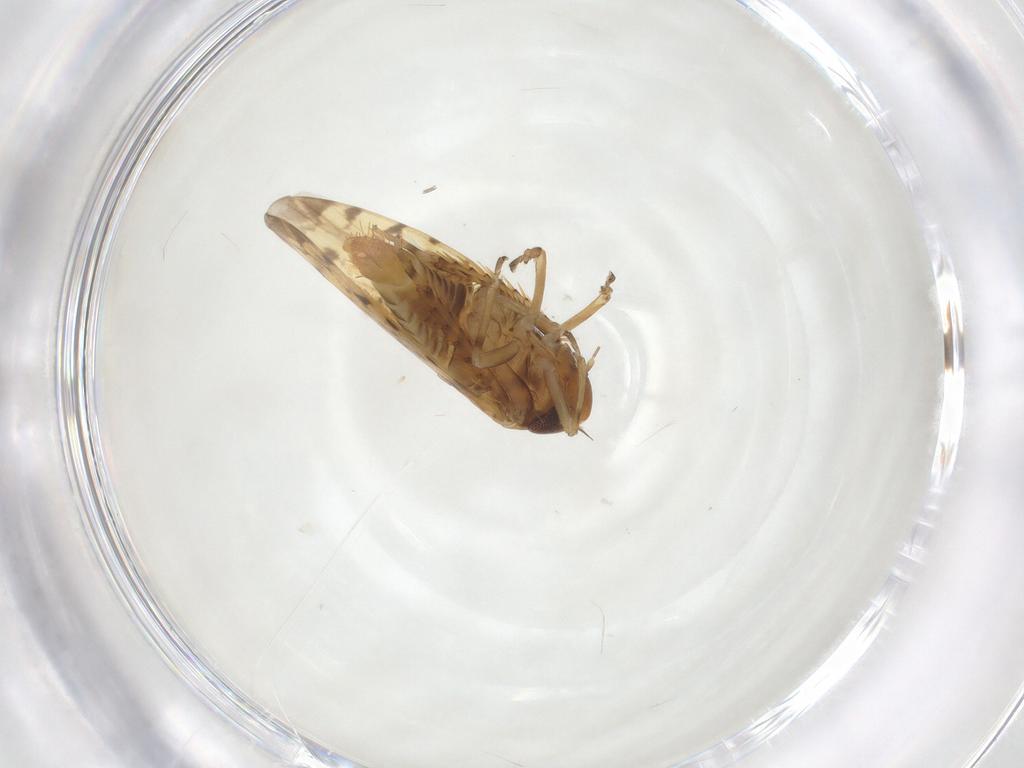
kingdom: Animalia
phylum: Arthropoda
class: Insecta
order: Hemiptera
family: Cicadellidae
